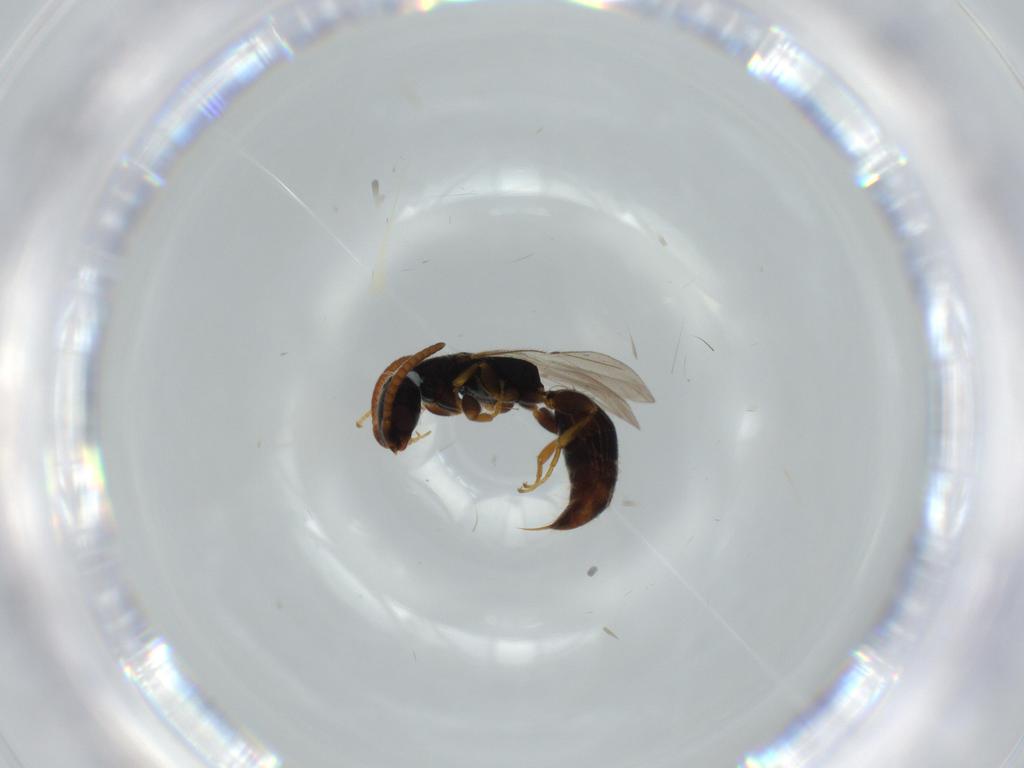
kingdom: Animalia
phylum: Arthropoda
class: Insecta
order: Hymenoptera
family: Bethylidae
